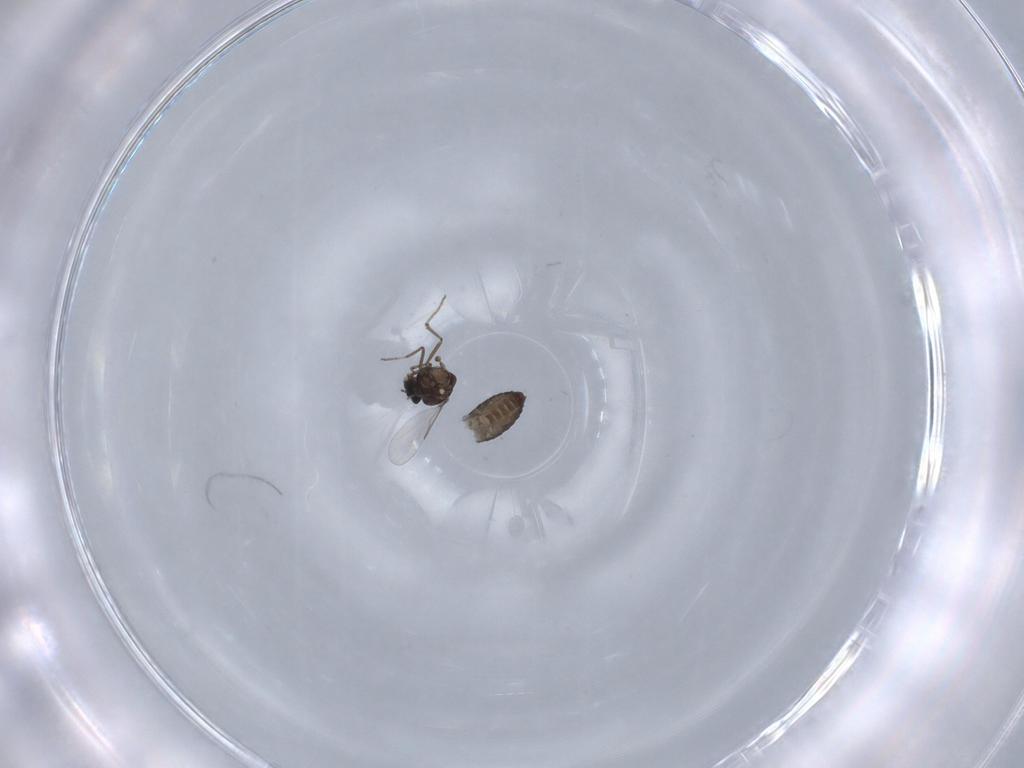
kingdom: Animalia
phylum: Arthropoda
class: Insecta
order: Diptera
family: Ceratopogonidae
